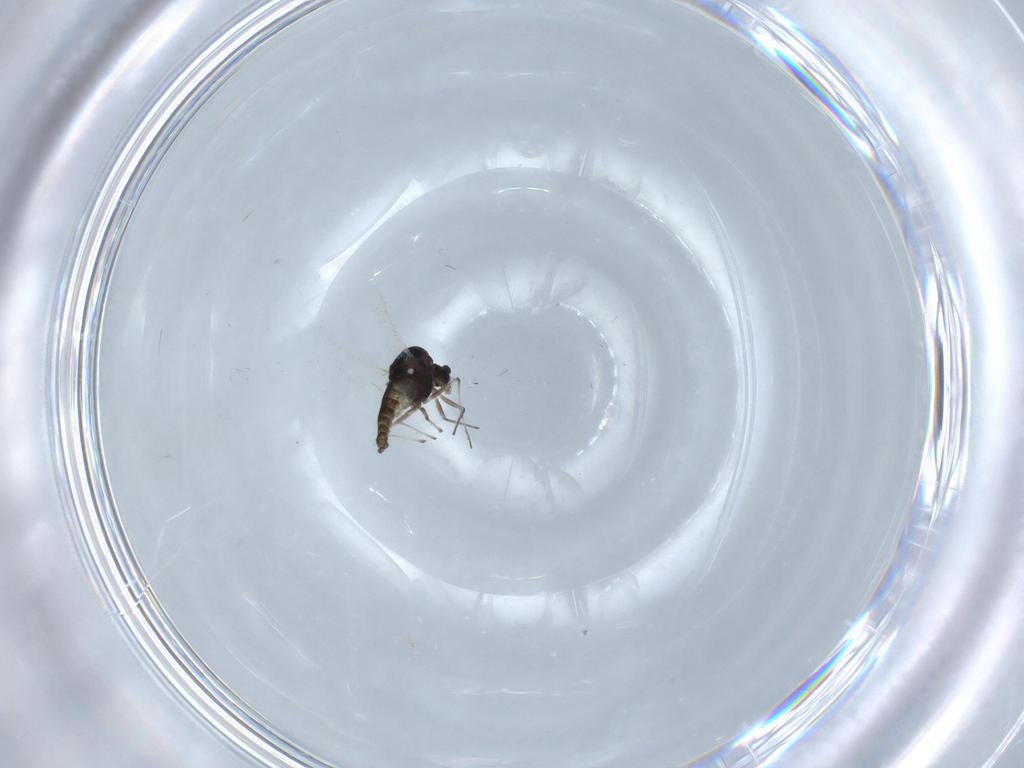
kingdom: Animalia
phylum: Arthropoda
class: Insecta
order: Diptera
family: Chironomidae
